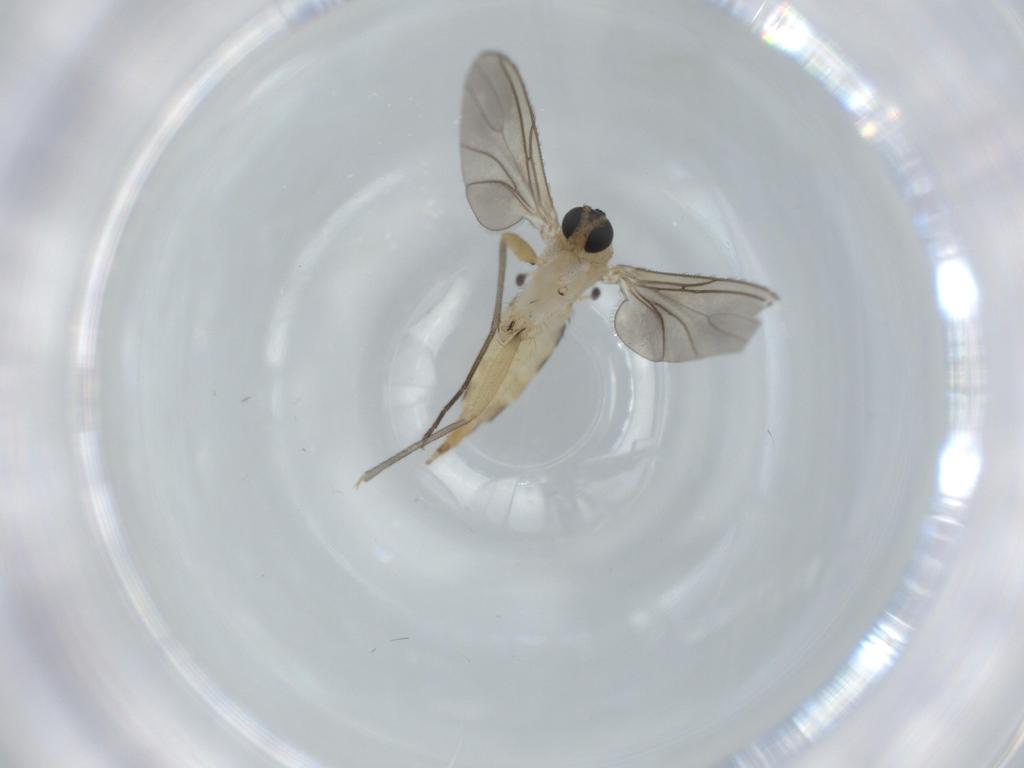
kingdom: Animalia
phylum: Arthropoda
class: Insecta
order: Diptera
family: Sciaridae
